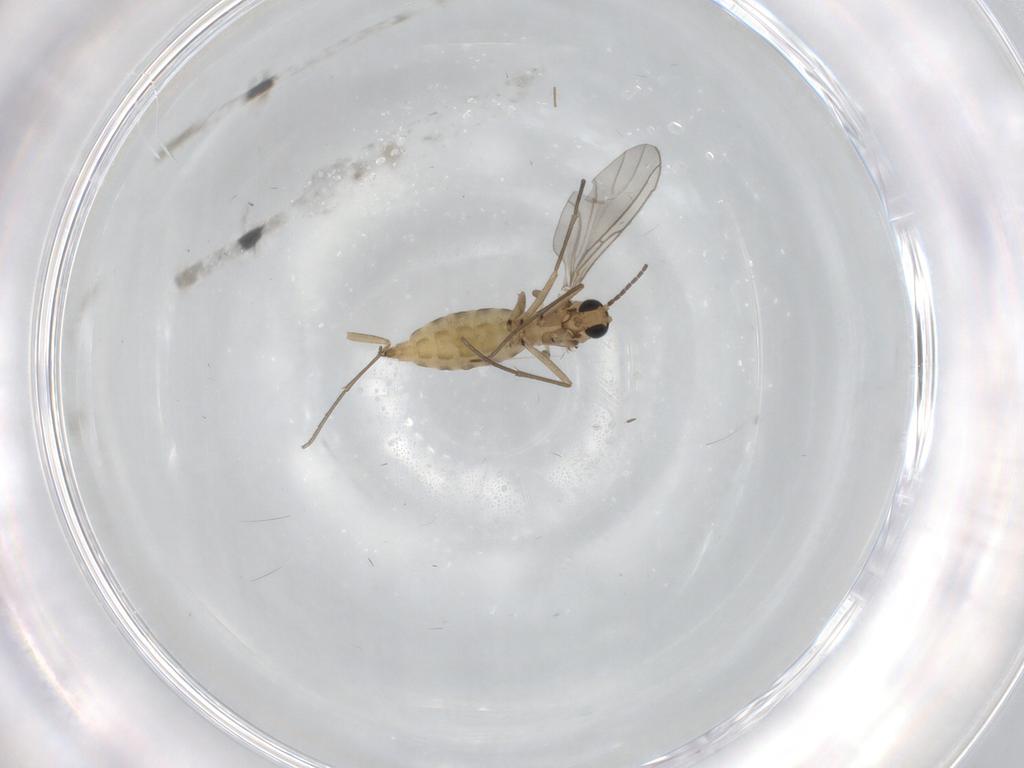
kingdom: Animalia
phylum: Arthropoda
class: Insecta
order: Diptera
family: Sciaridae
